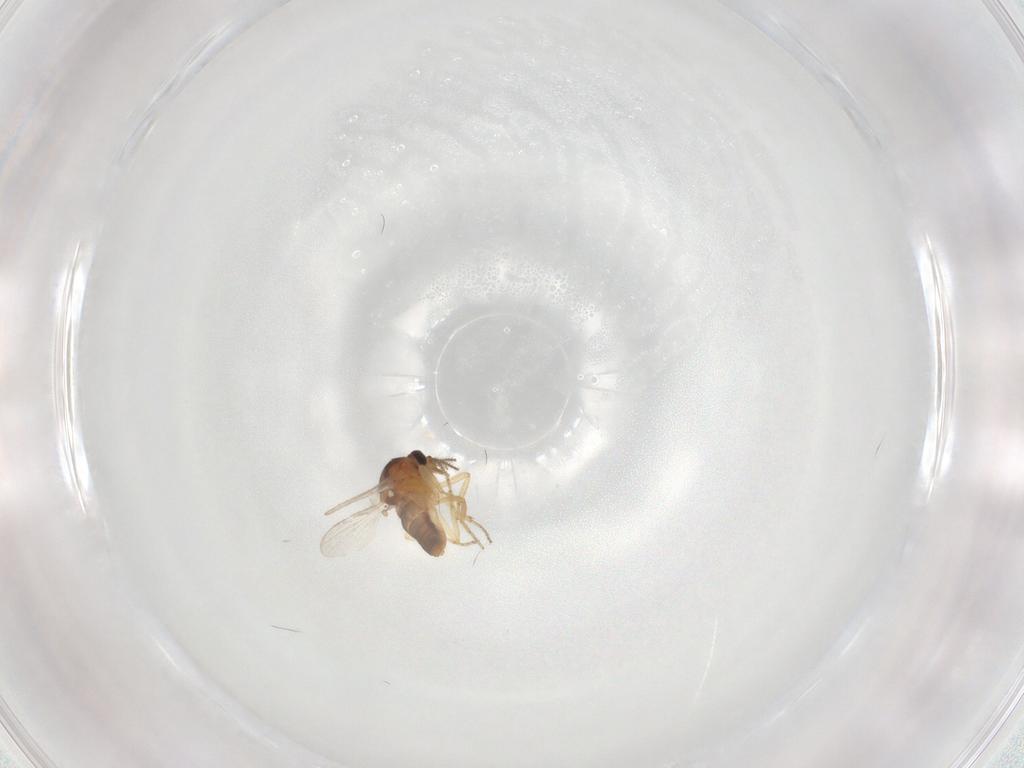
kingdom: Animalia
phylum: Arthropoda
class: Insecta
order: Diptera
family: Ceratopogonidae
